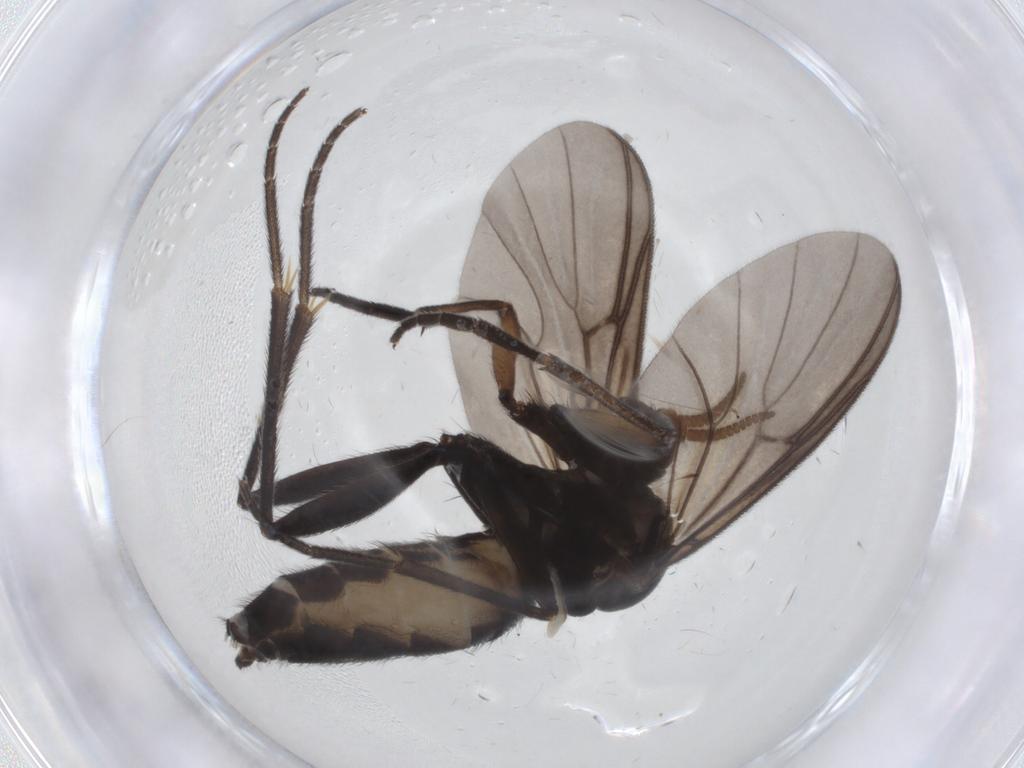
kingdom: Animalia
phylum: Arthropoda
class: Insecta
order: Diptera
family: Mycetophilidae
